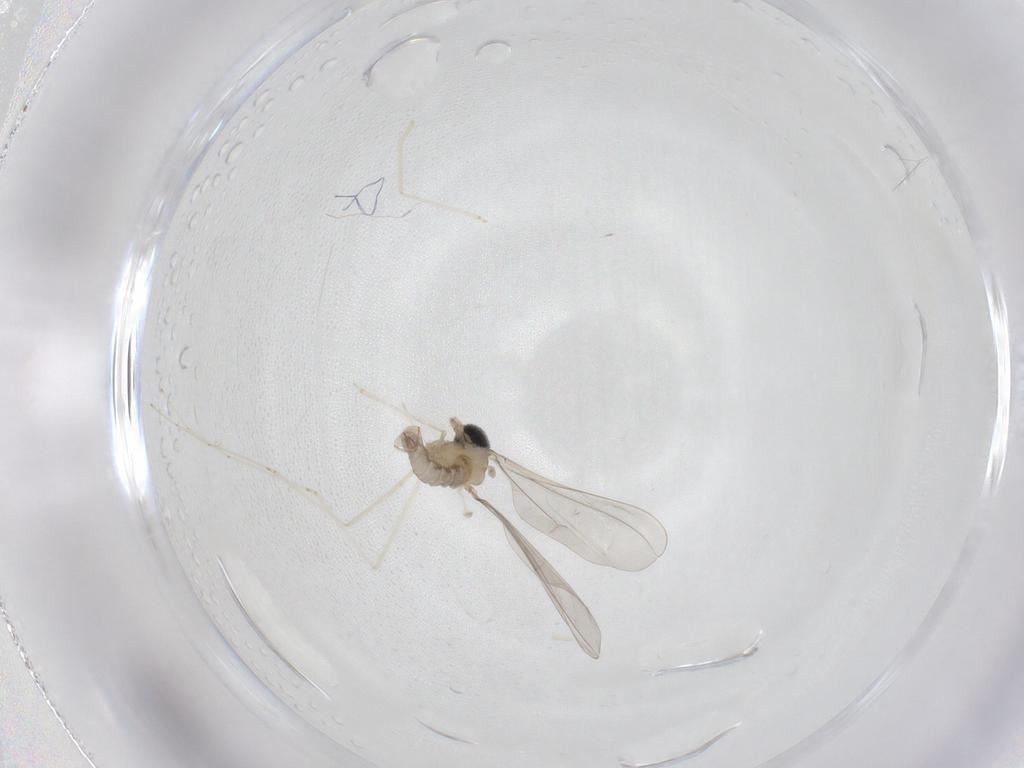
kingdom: Animalia
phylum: Arthropoda
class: Insecta
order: Diptera
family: Cecidomyiidae
